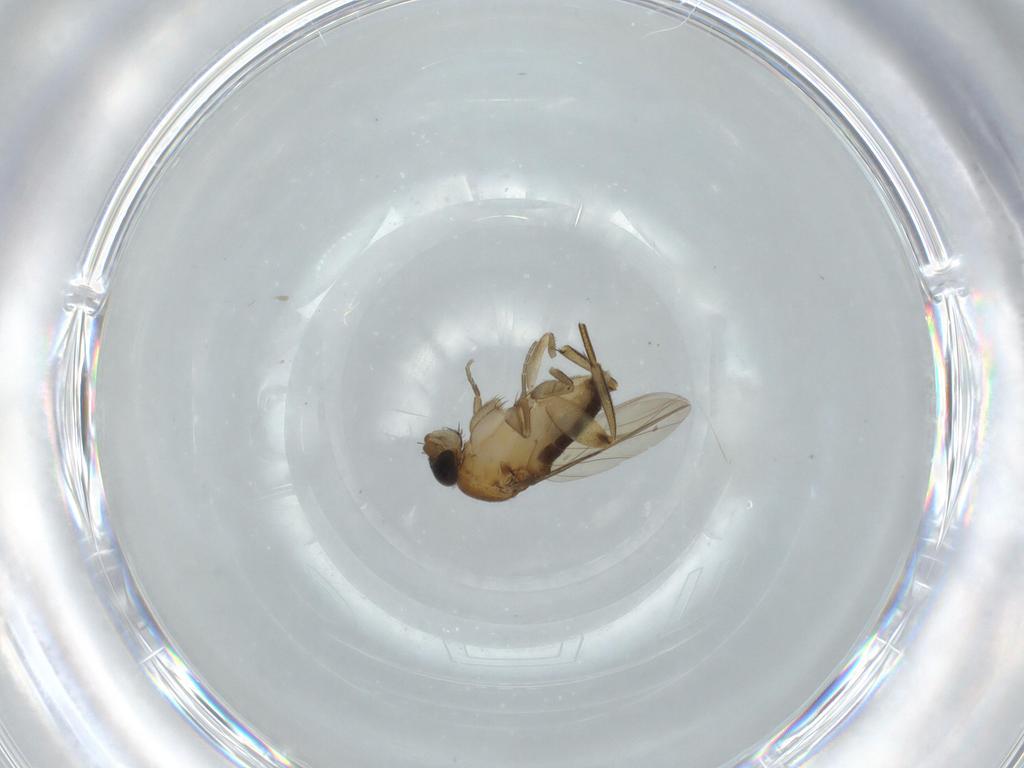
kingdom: Animalia
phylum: Arthropoda
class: Insecta
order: Diptera
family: Phoridae
